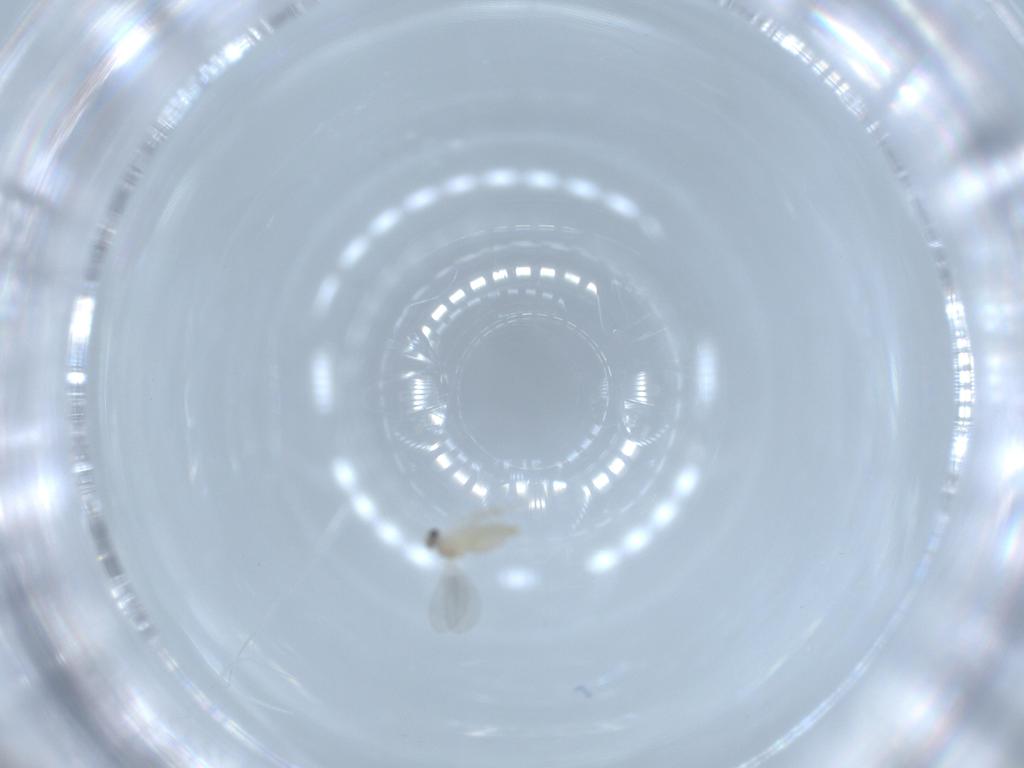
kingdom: Animalia
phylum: Arthropoda
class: Insecta
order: Diptera
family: Cecidomyiidae
